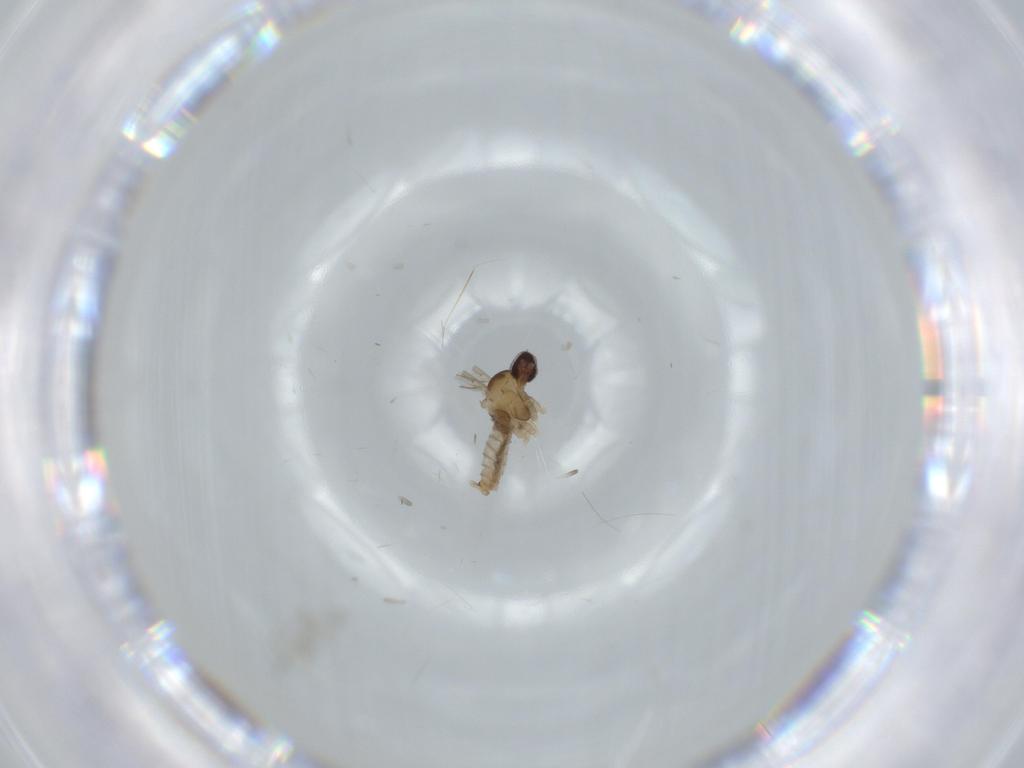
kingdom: Animalia
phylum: Arthropoda
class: Insecta
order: Diptera
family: Cecidomyiidae
